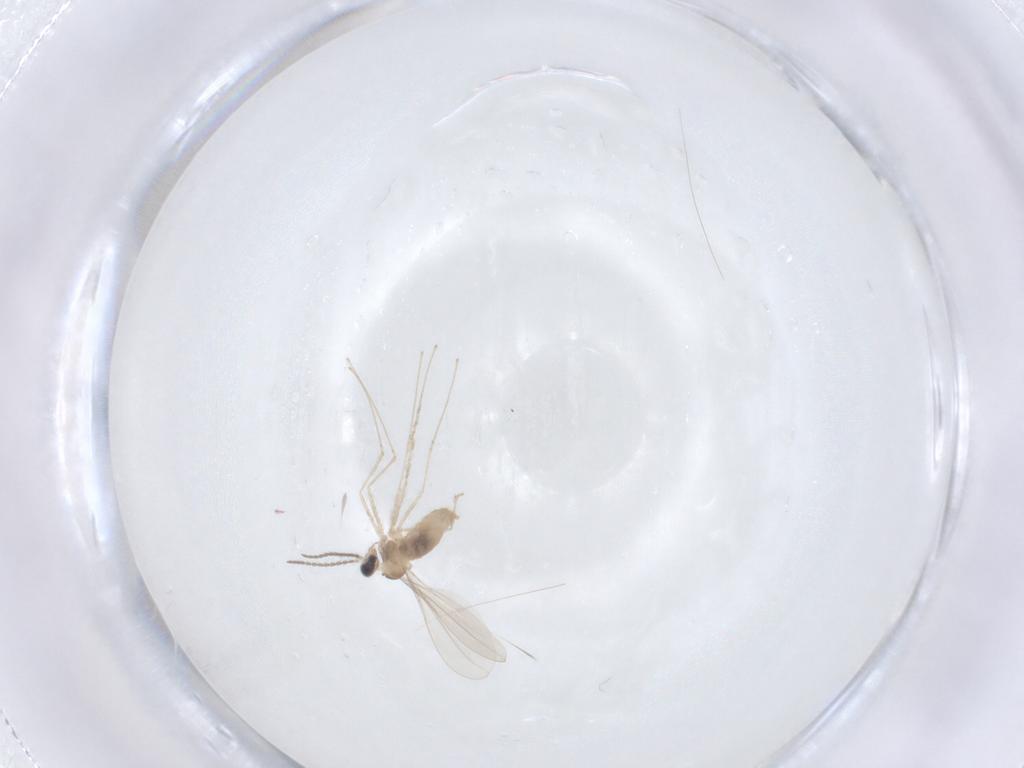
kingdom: Animalia
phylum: Arthropoda
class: Insecta
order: Diptera
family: Cecidomyiidae
